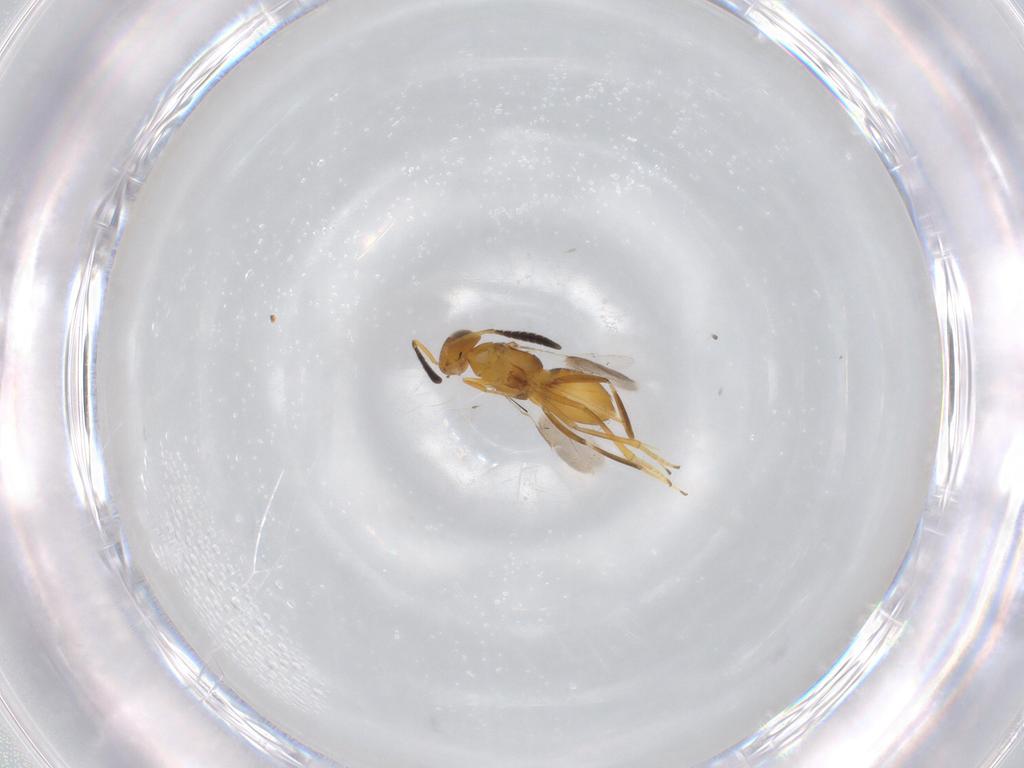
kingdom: Animalia
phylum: Arthropoda
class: Insecta
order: Hymenoptera
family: Encyrtidae
